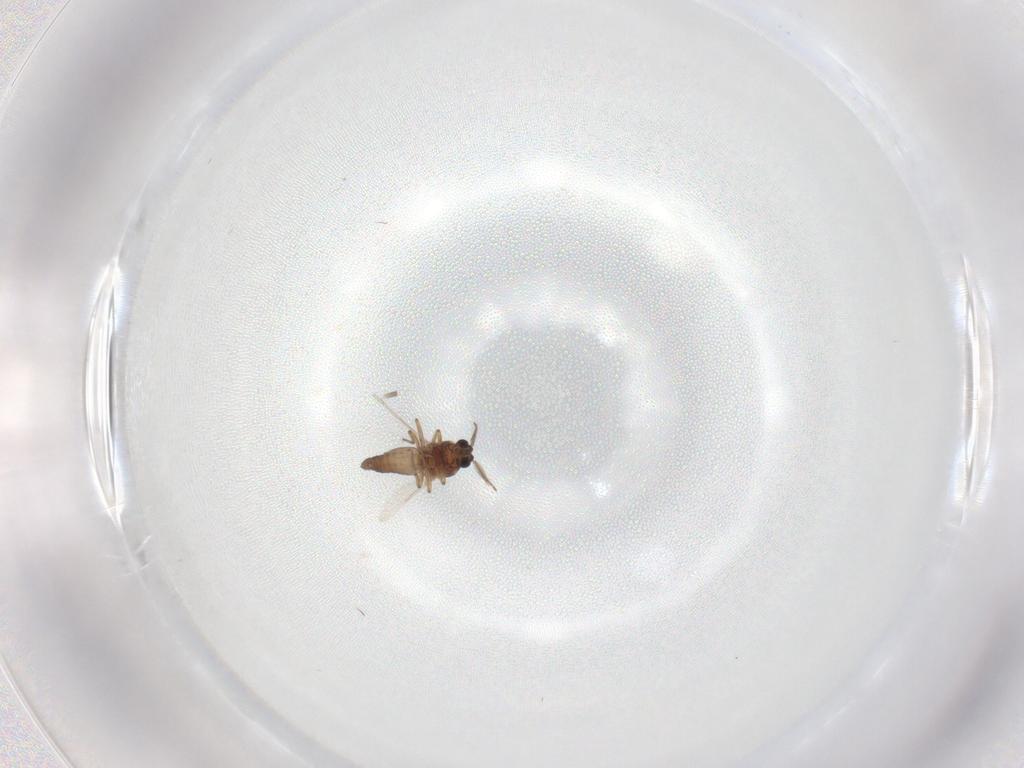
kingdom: Animalia
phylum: Arthropoda
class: Insecta
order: Diptera
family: Ceratopogonidae
